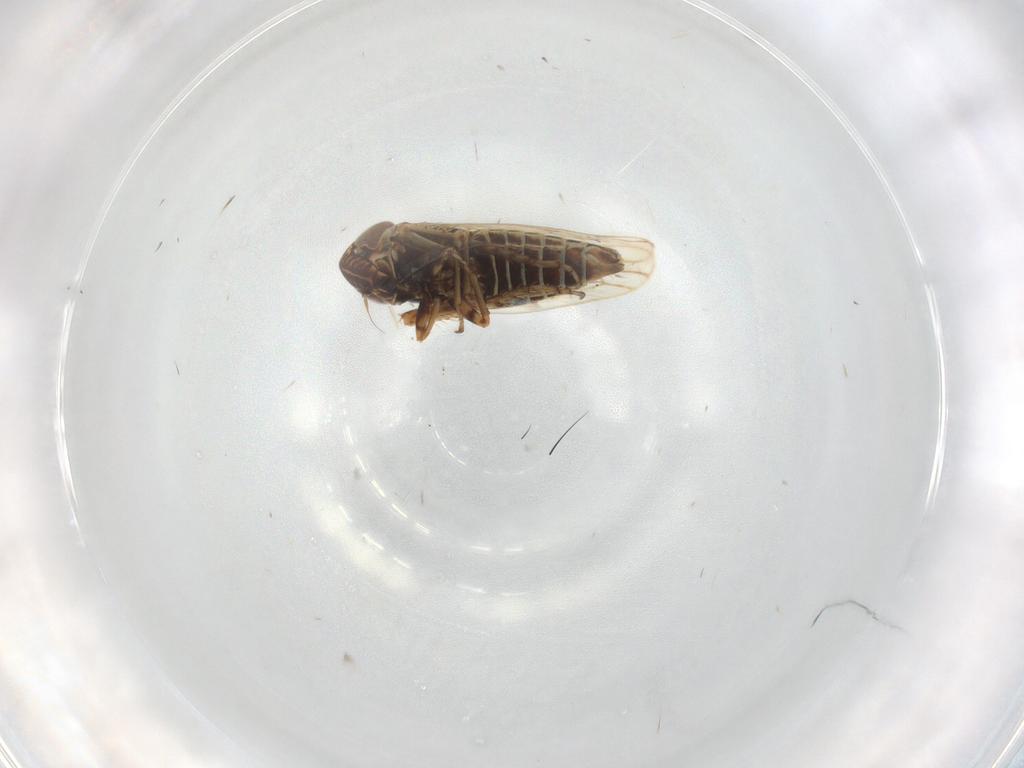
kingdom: Animalia
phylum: Arthropoda
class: Insecta
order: Hemiptera
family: Cicadellidae
